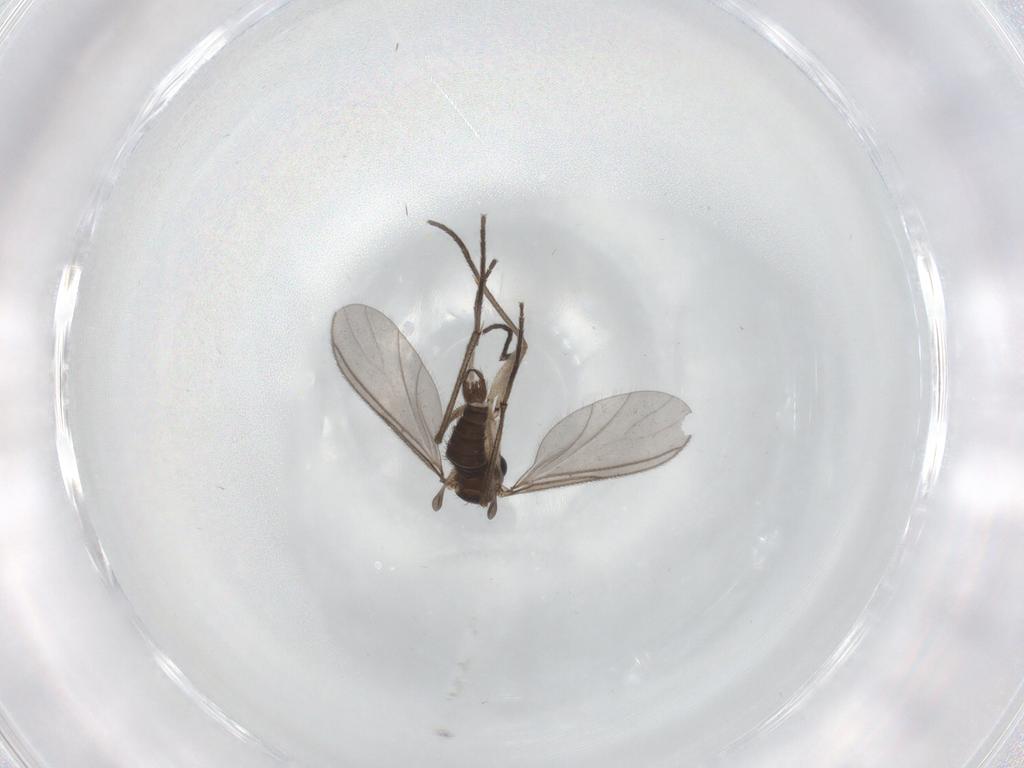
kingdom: Animalia
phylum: Arthropoda
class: Insecta
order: Diptera
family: Sciaridae
